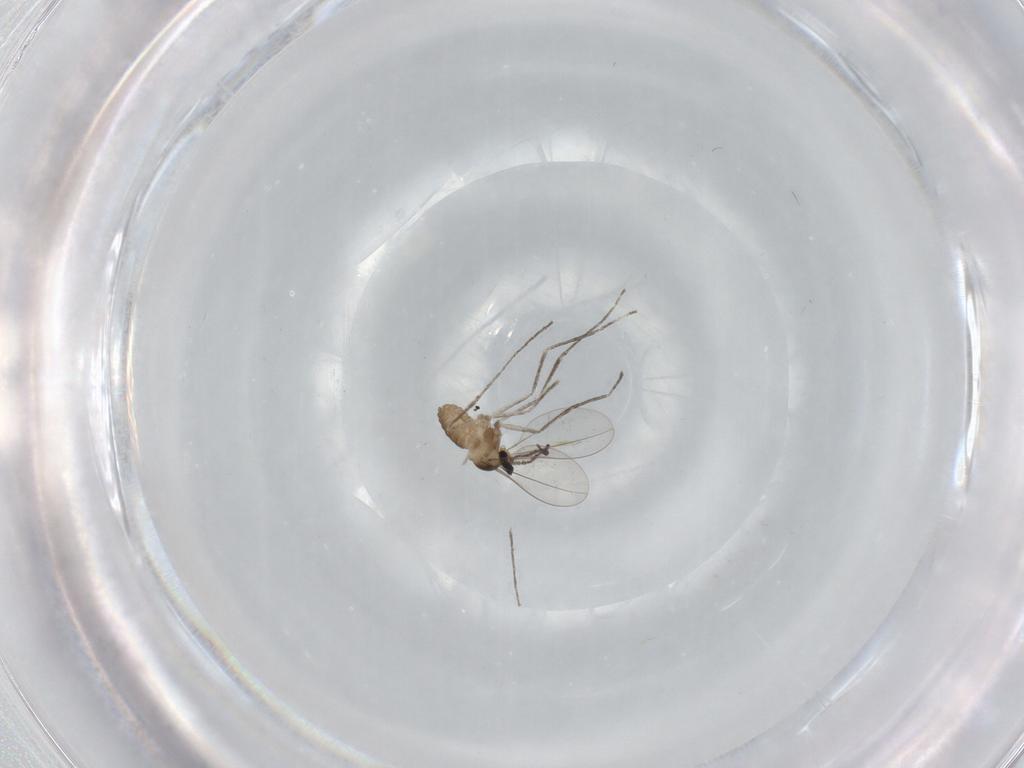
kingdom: Animalia
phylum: Arthropoda
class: Insecta
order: Diptera
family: Cecidomyiidae
